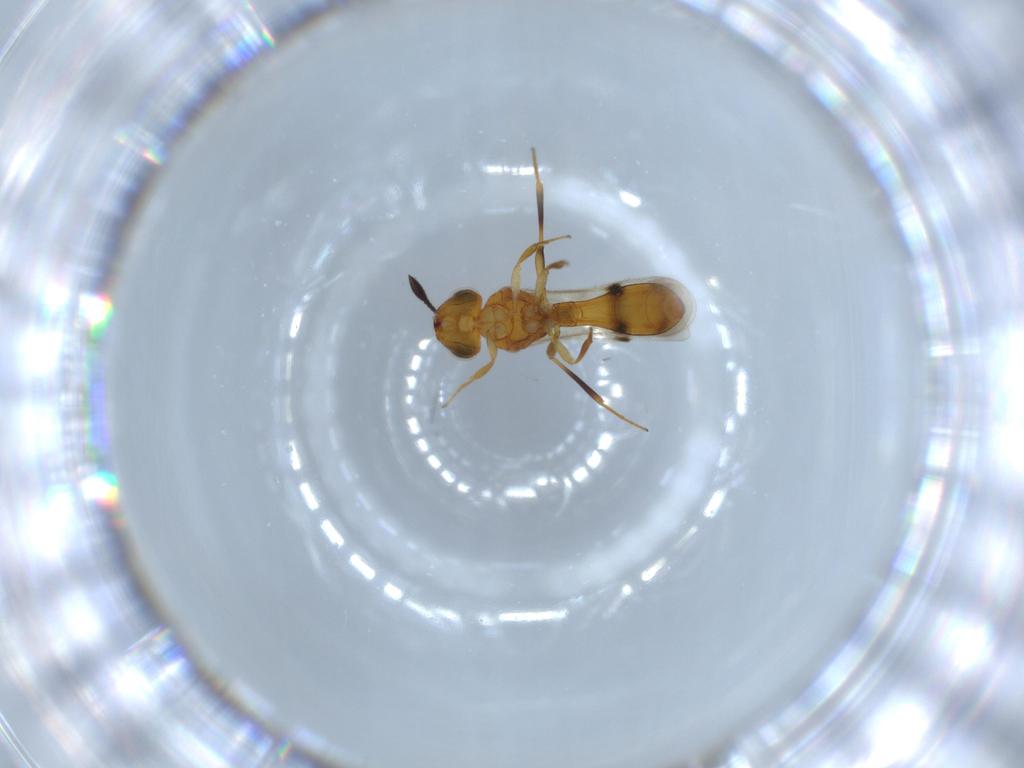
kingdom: Animalia
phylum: Arthropoda
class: Insecta
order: Hymenoptera
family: Scelionidae
